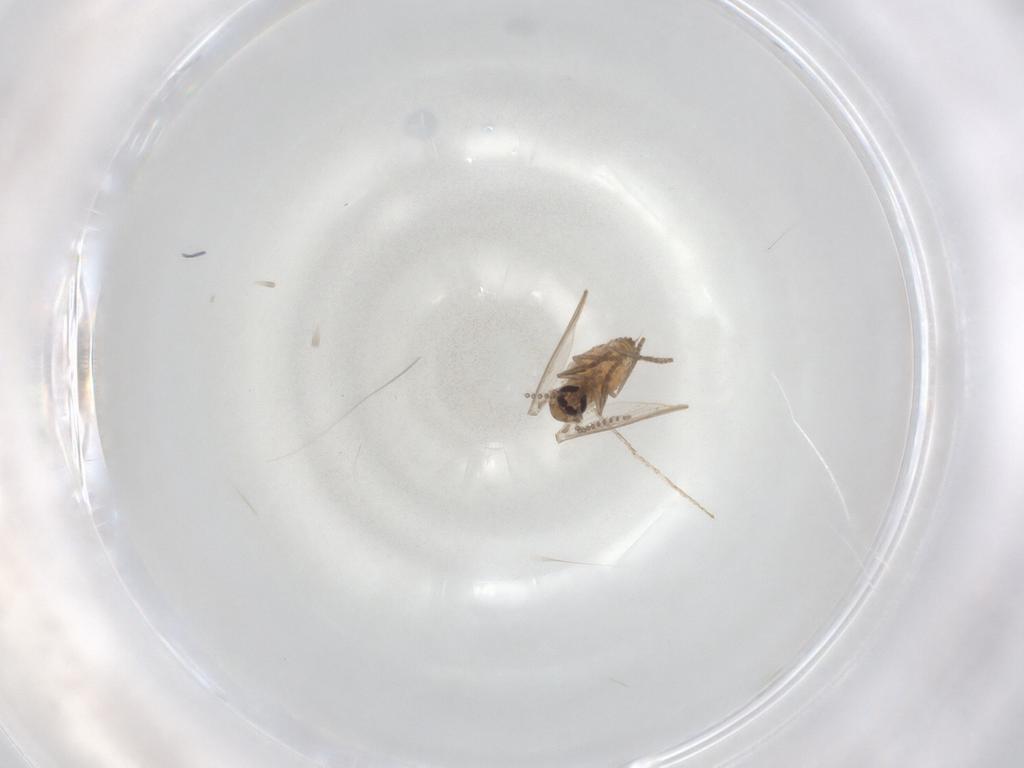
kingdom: Animalia
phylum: Arthropoda
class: Insecta
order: Diptera
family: Psychodidae
